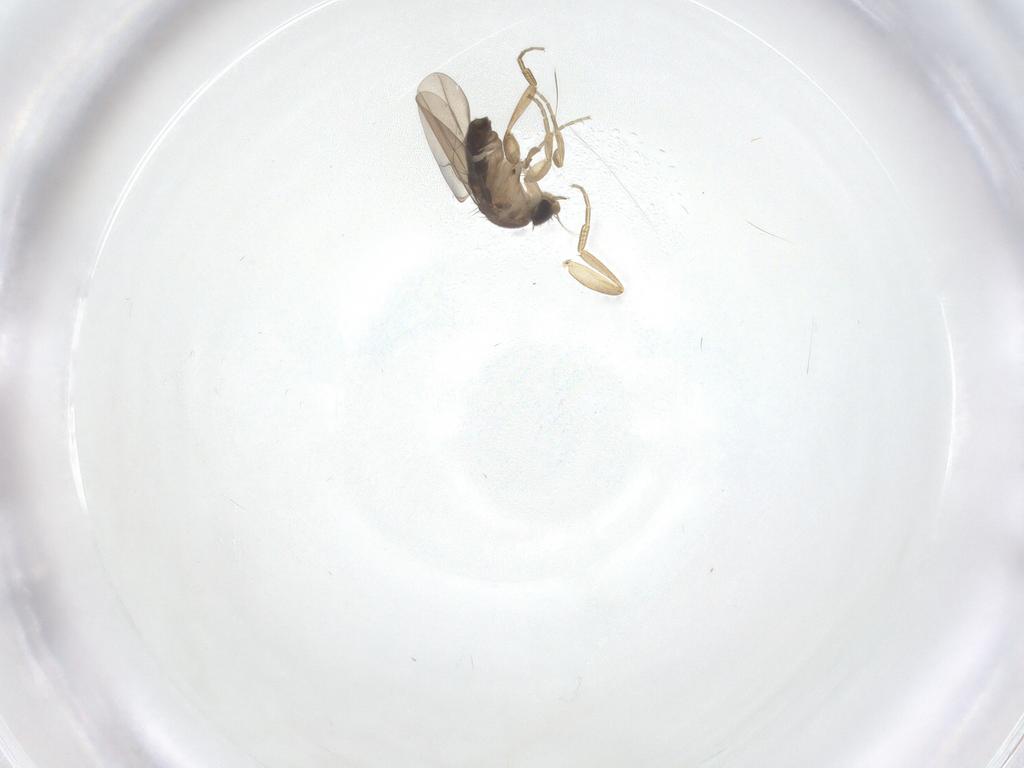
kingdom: Animalia
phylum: Arthropoda
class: Insecta
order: Diptera
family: Phoridae
